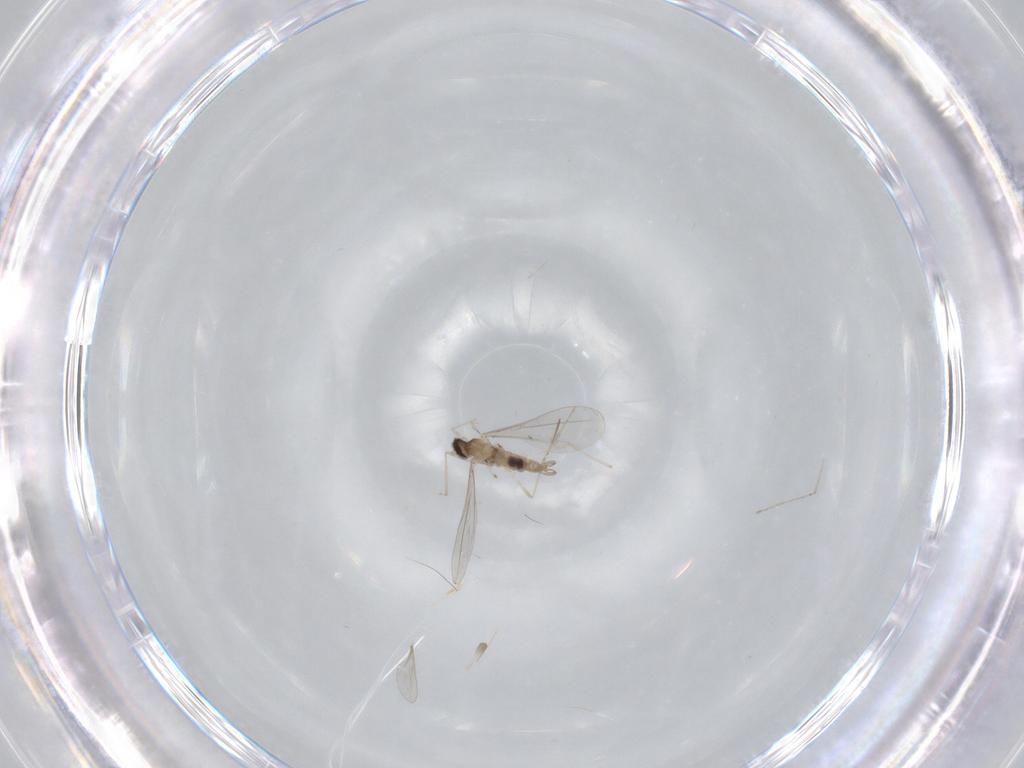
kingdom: Animalia
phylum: Arthropoda
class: Insecta
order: Diptera
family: Cecidomyiidae
